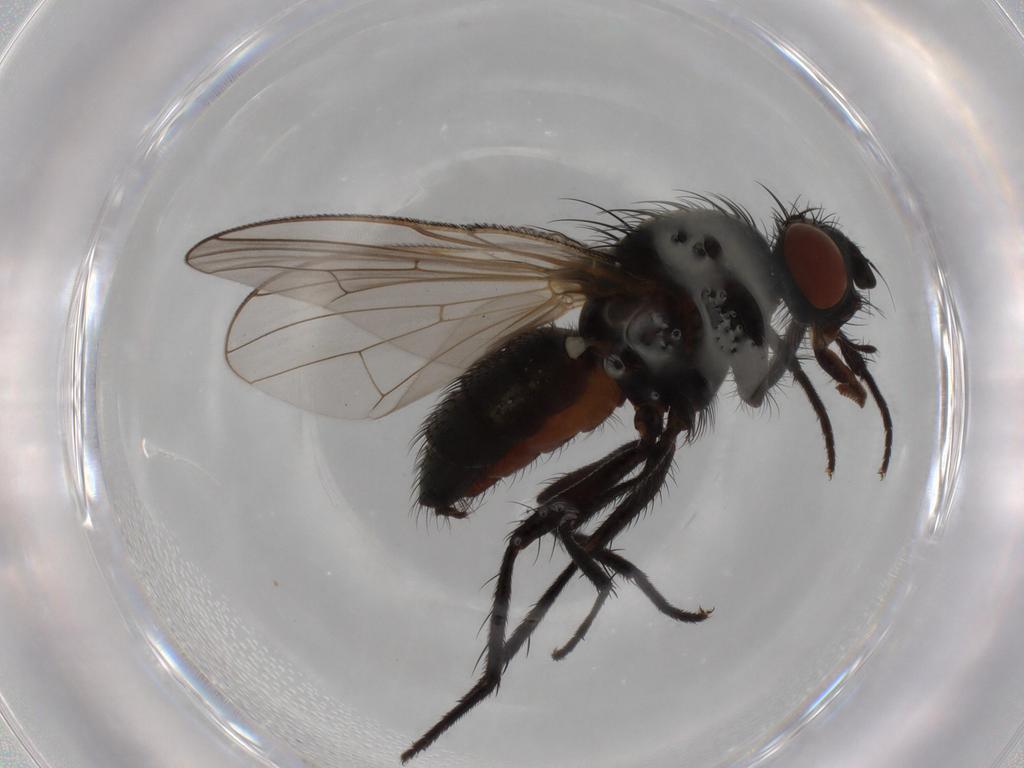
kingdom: Animalia
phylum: Arthropoda
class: Insecta
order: Diptera
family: Anthomyiidae
